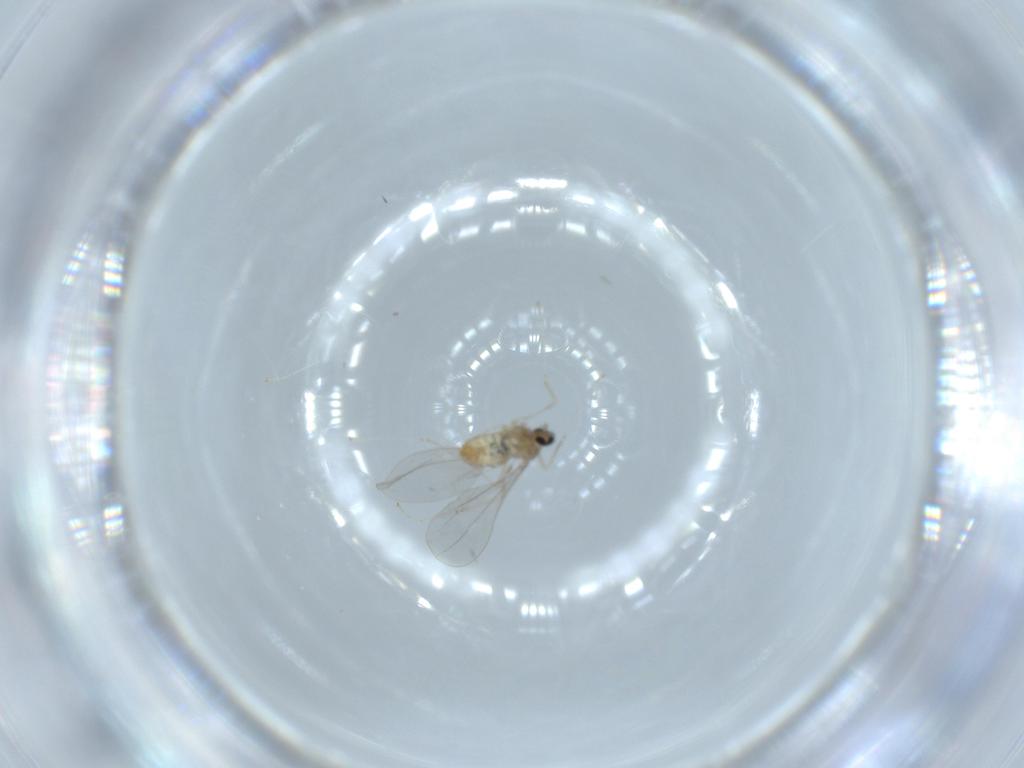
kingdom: Animalia
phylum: Arthropoda
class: Insecta
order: Diptera
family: Cecidomyiidae
